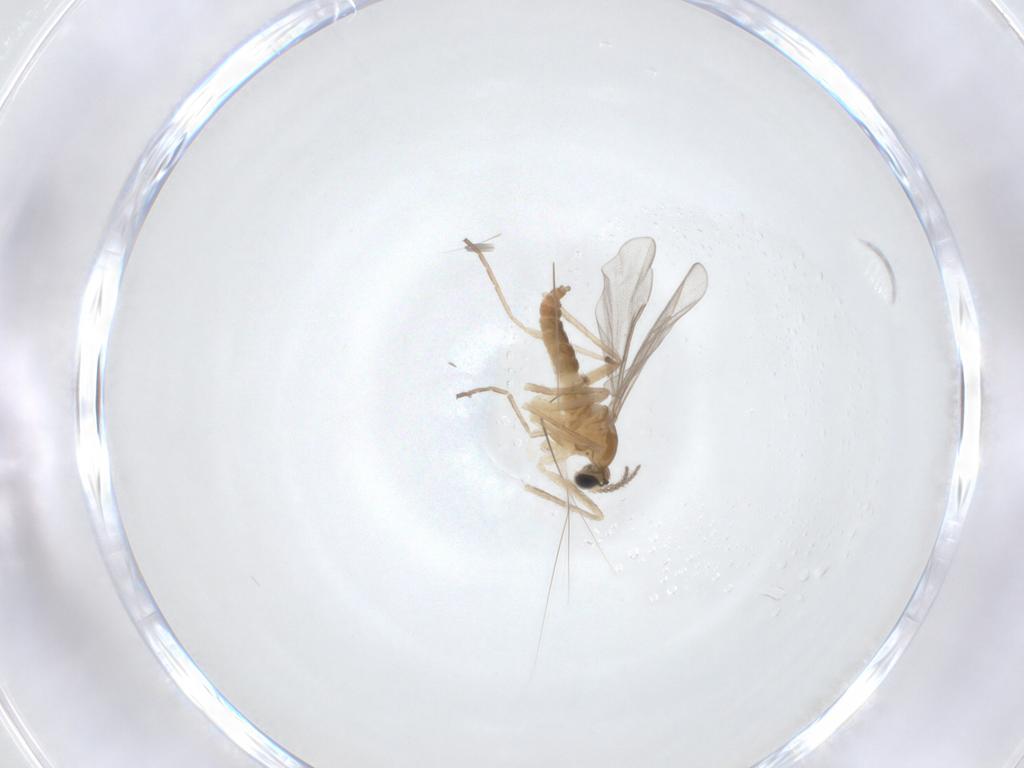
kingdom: Animalia
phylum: Arthropoda
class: Insecta
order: Diptera
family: Cecidomyiidae
